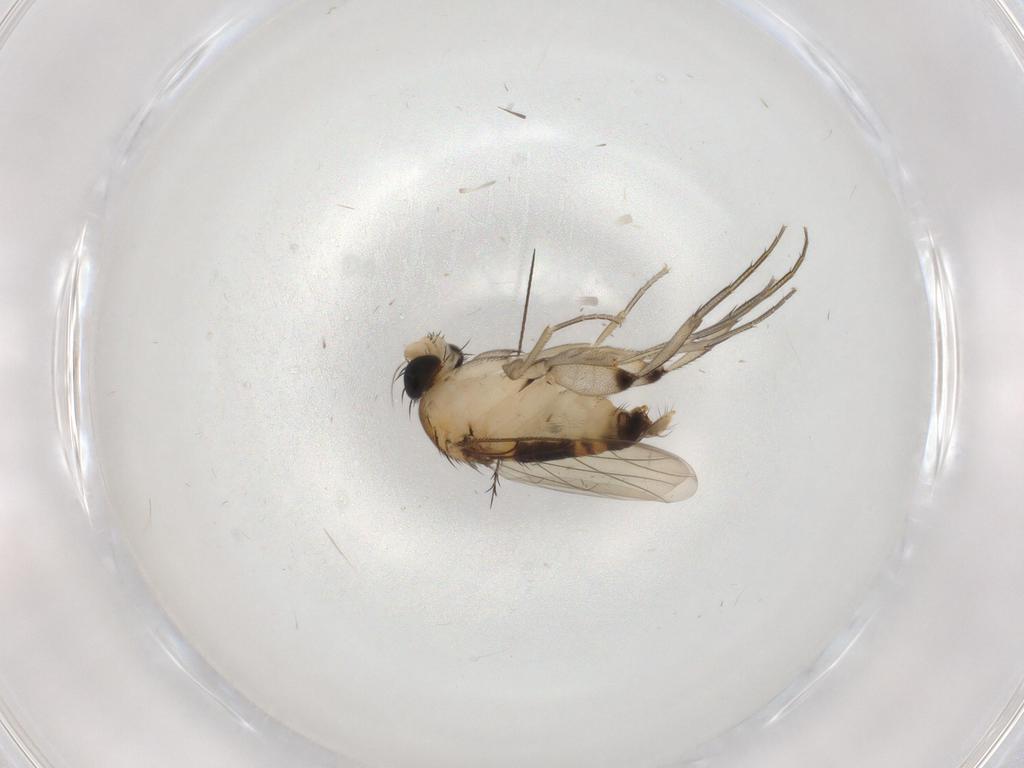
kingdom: Animalia
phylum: Arthropoda
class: Insecta
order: Diptera
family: Phoridae
